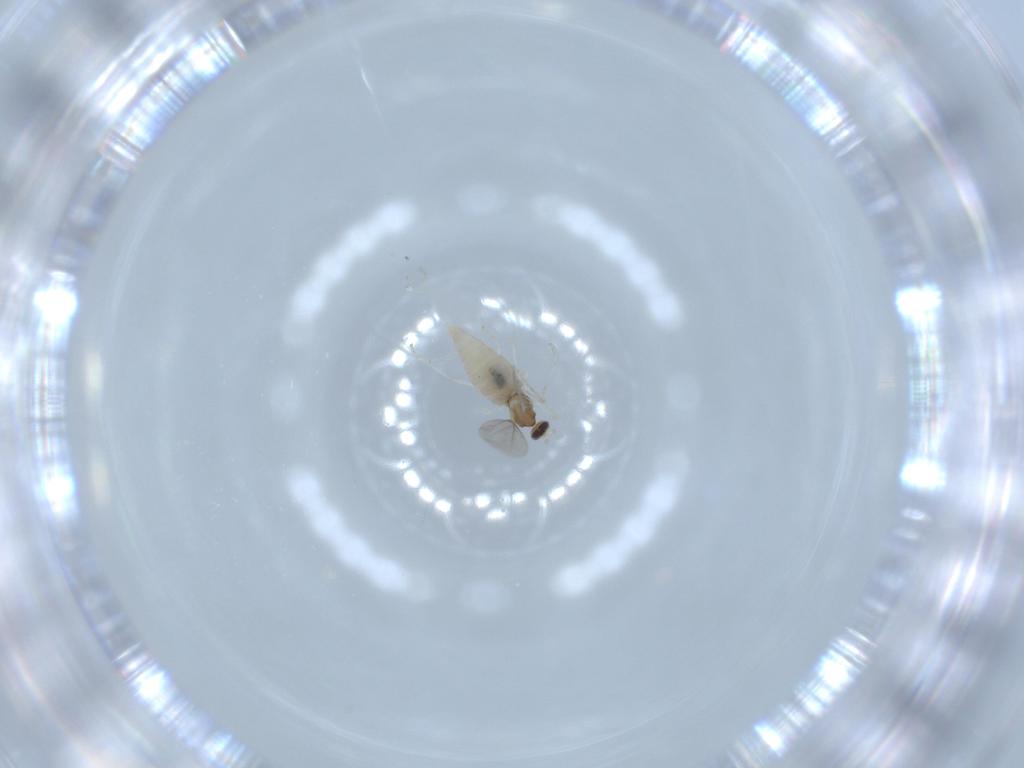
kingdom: Animalia
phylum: Arthropoda
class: Insecta
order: Diptera
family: Cecidomyiidae
